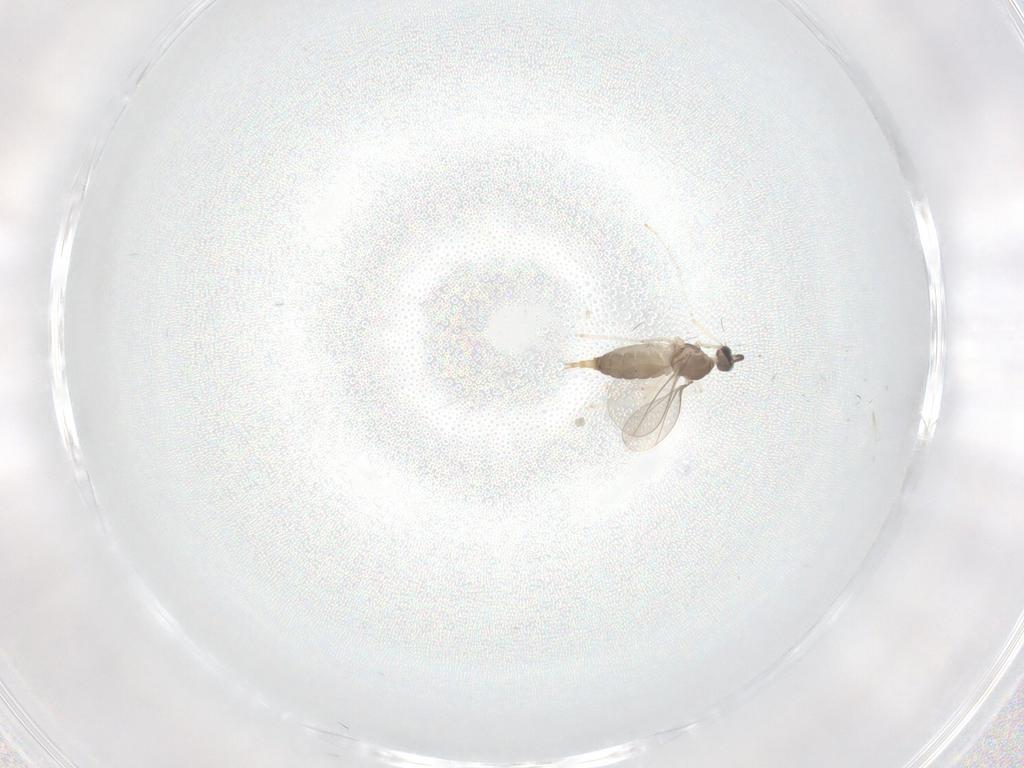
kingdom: Animalia
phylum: Arthropoda
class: Insecta
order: Diptera
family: Cecidomyiidae
